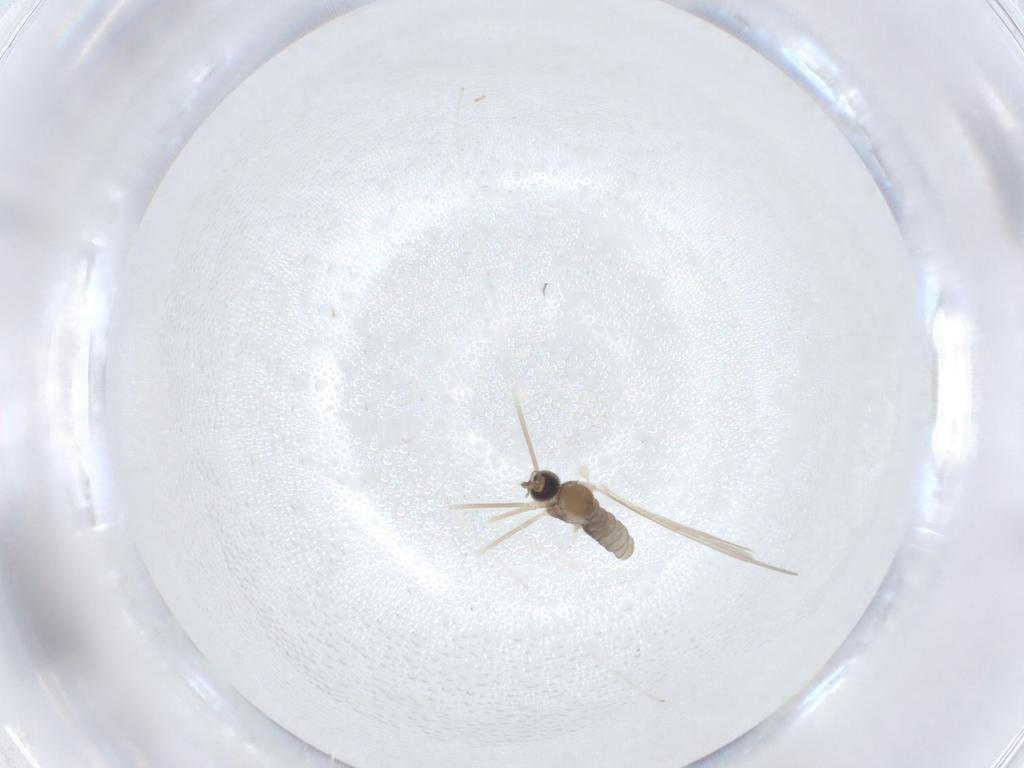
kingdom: Animalia
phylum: Arthropoda
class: Insecta
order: Diptera
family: Cecidomyiidae
